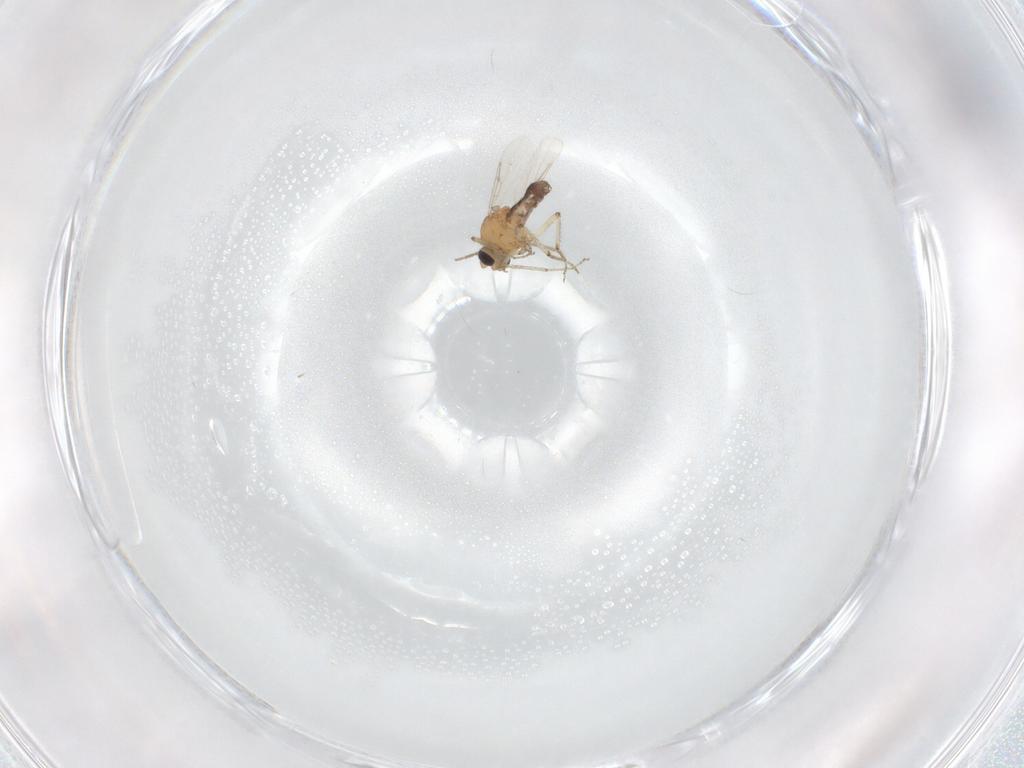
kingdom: Animalia
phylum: Arthropoda
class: Insecta
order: Diptera
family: Ceratopogonidae
